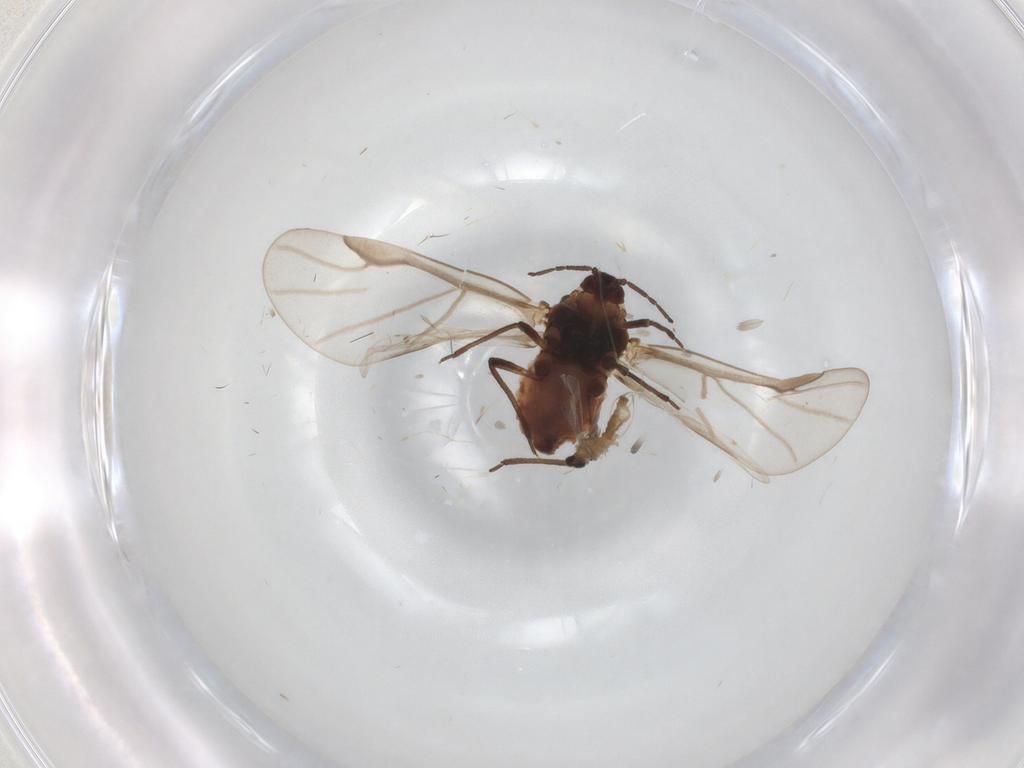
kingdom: Animalia
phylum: Arthropoda
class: Insecta
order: Hemiptera
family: Aphididae
